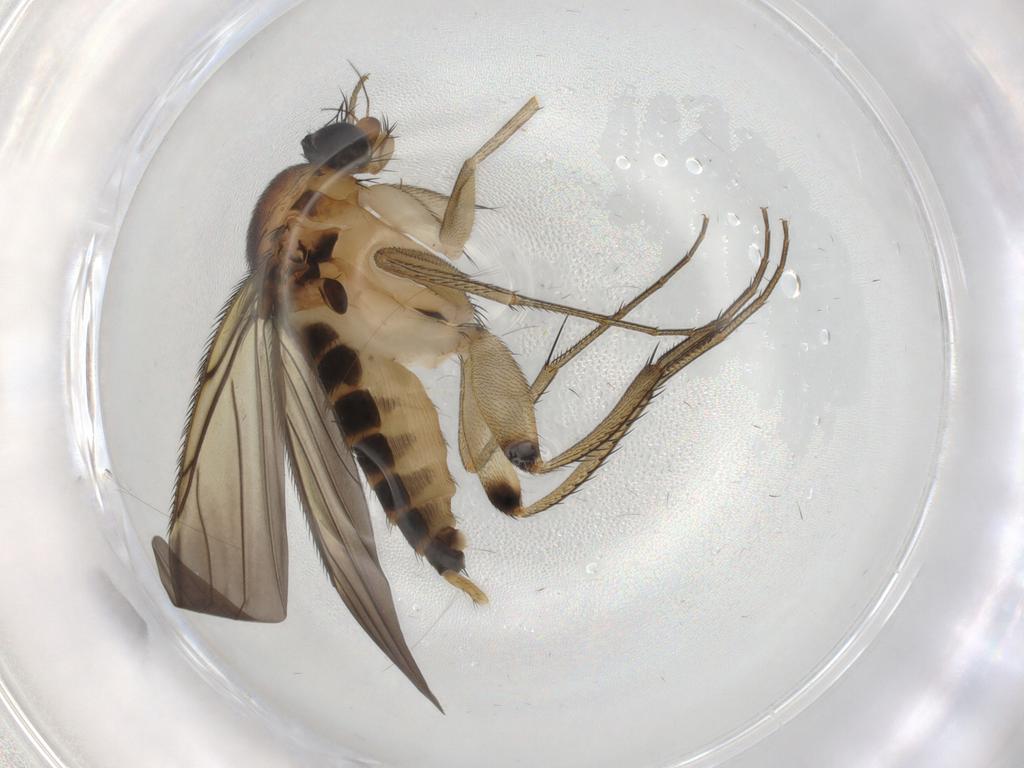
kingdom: Animalia
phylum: Arthropoda
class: Insecta
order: Diptera
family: Phoridae
